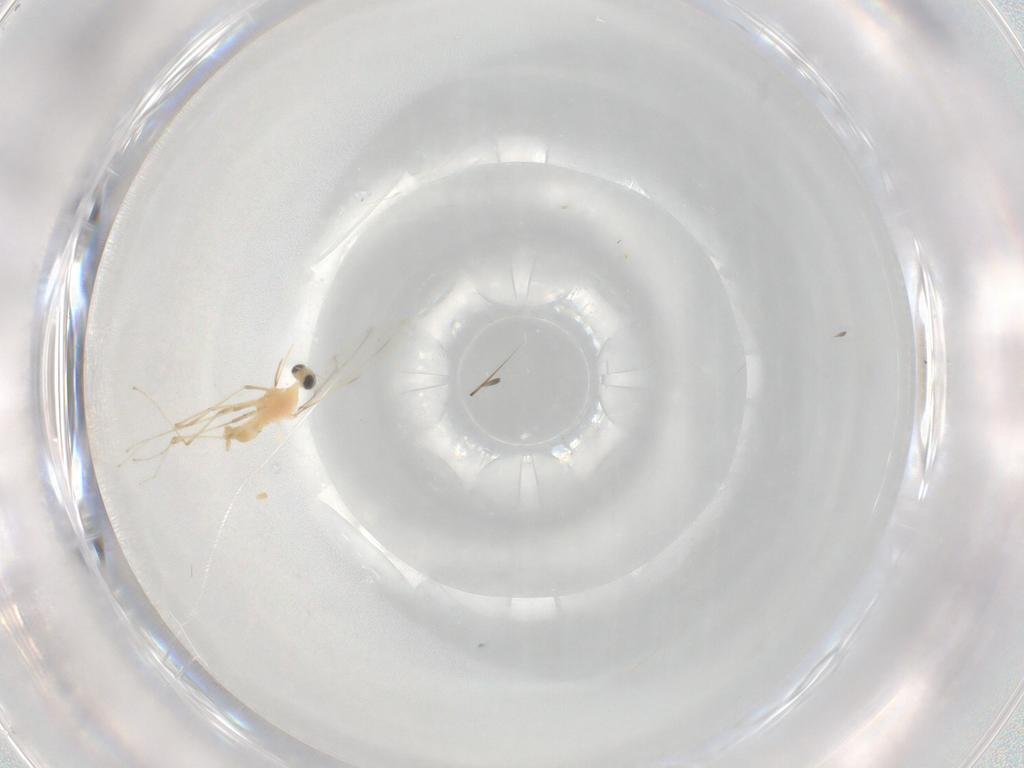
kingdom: Animalia
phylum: Arthropoda
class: Insecta
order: Diptera
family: Cecidomyiidae
